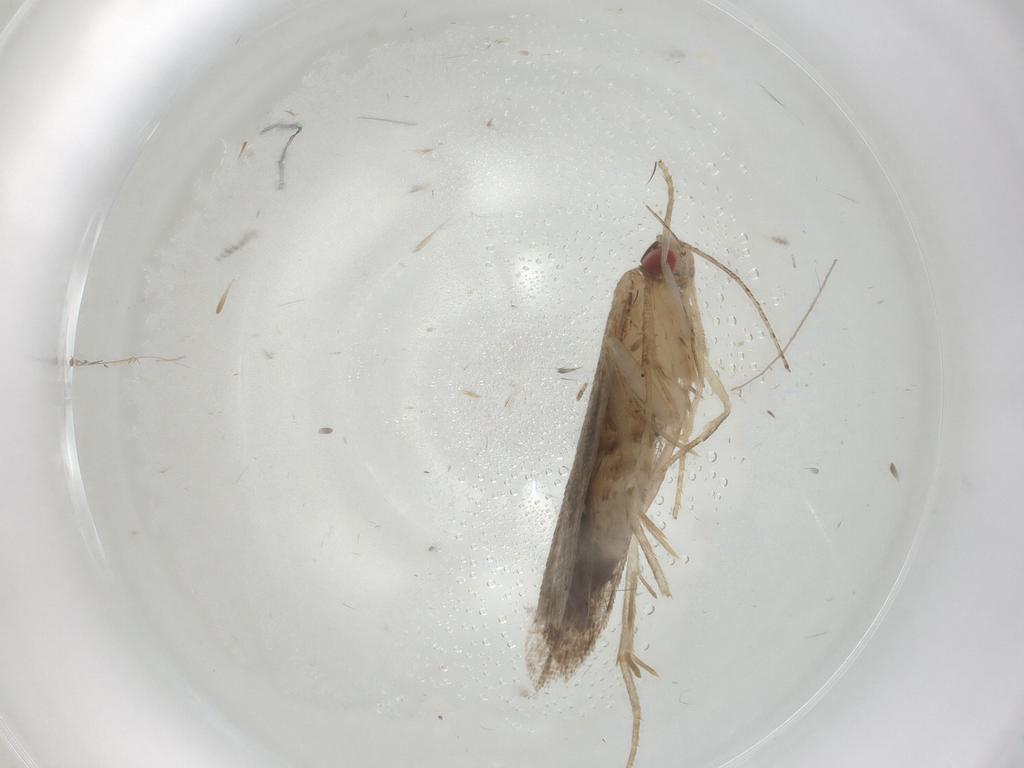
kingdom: Animalia
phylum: Arthropoda
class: Insecta
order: Lepidoptera
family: Gelechiidae
